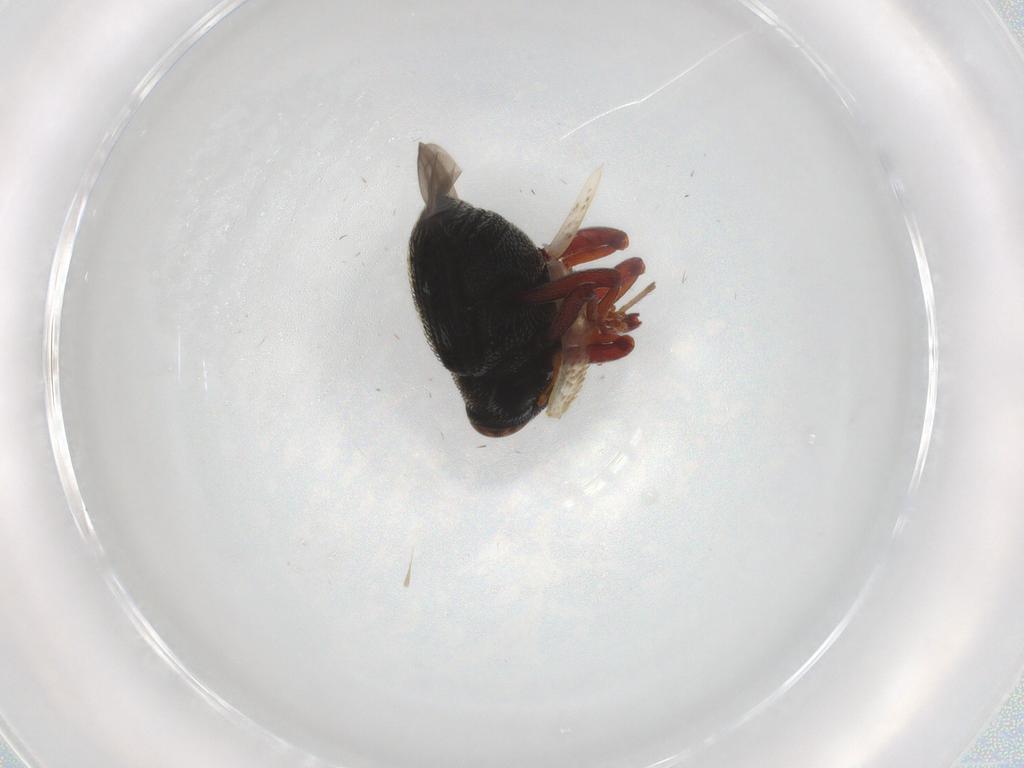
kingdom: Animalia
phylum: Arthropoda
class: Insecta
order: Coleoptera
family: Curculionidae
